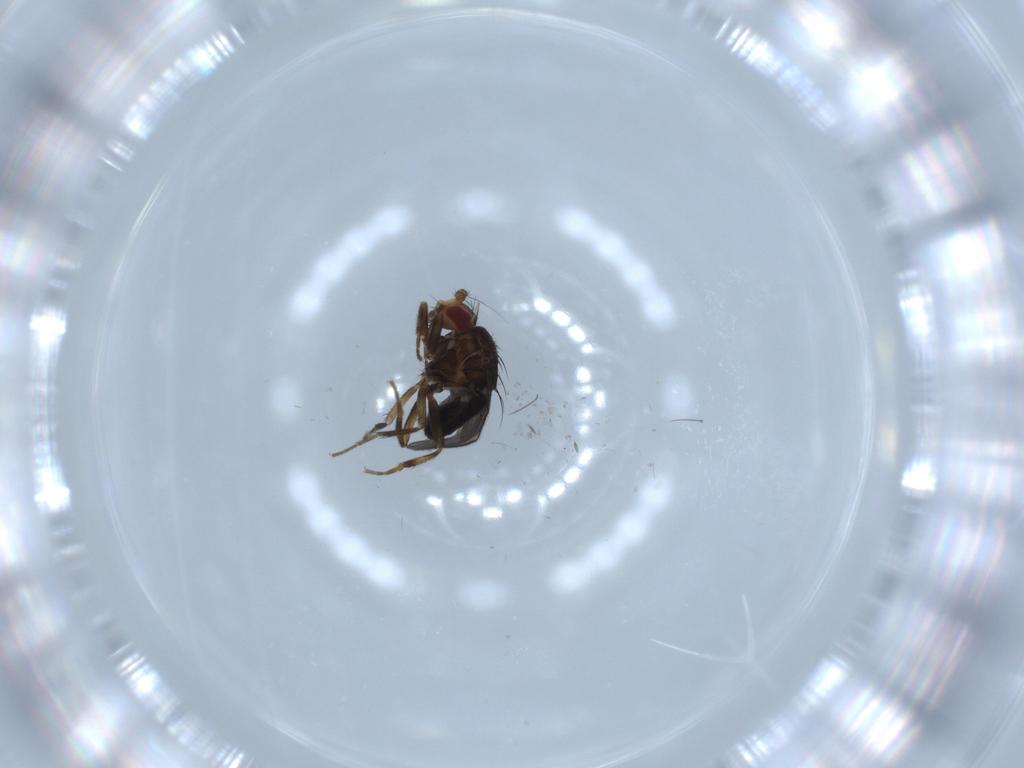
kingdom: Animalia
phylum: Arthropoda
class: Insecta
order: Diptera
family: Sphaeroceridae
